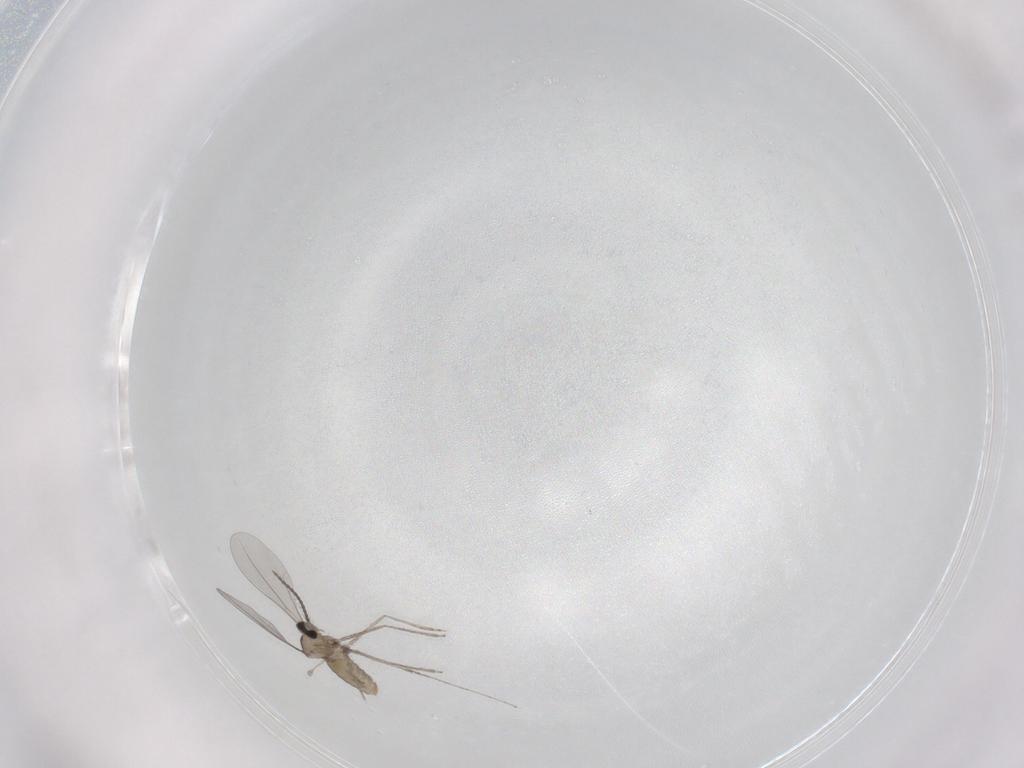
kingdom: Animalia
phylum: Arthropoda
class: Insecta
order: Diptera
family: Cecidomyiidae
